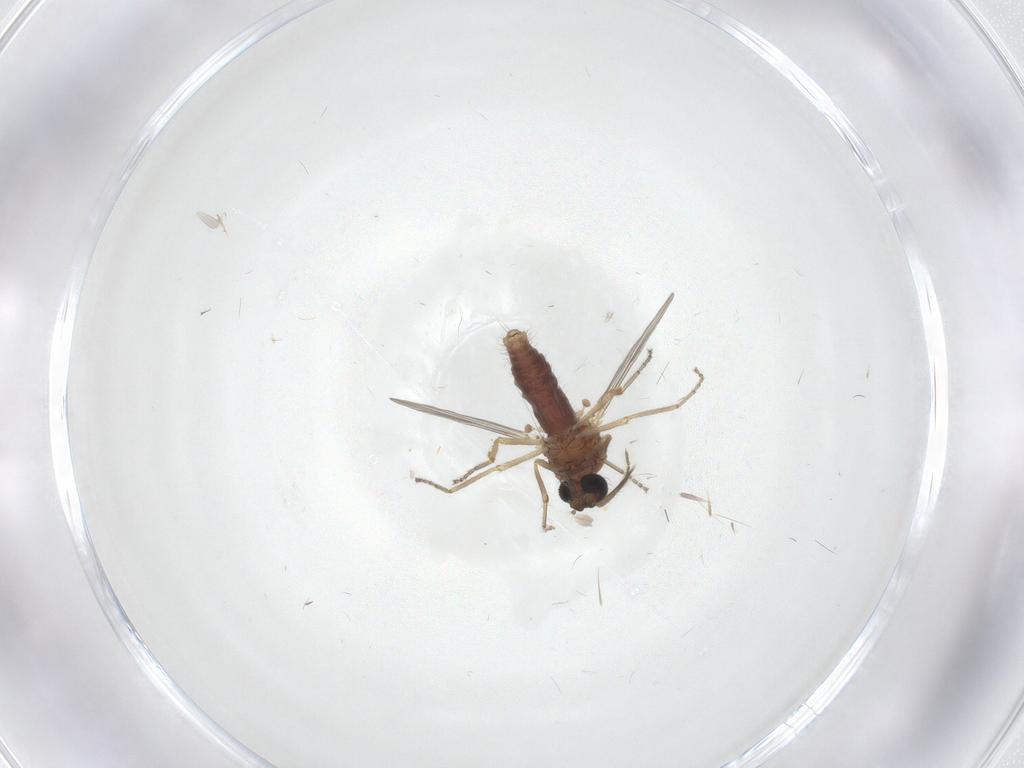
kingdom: Animalia
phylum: Arthropoda
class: Insecta
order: Diptera
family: Ceratopogonidae
